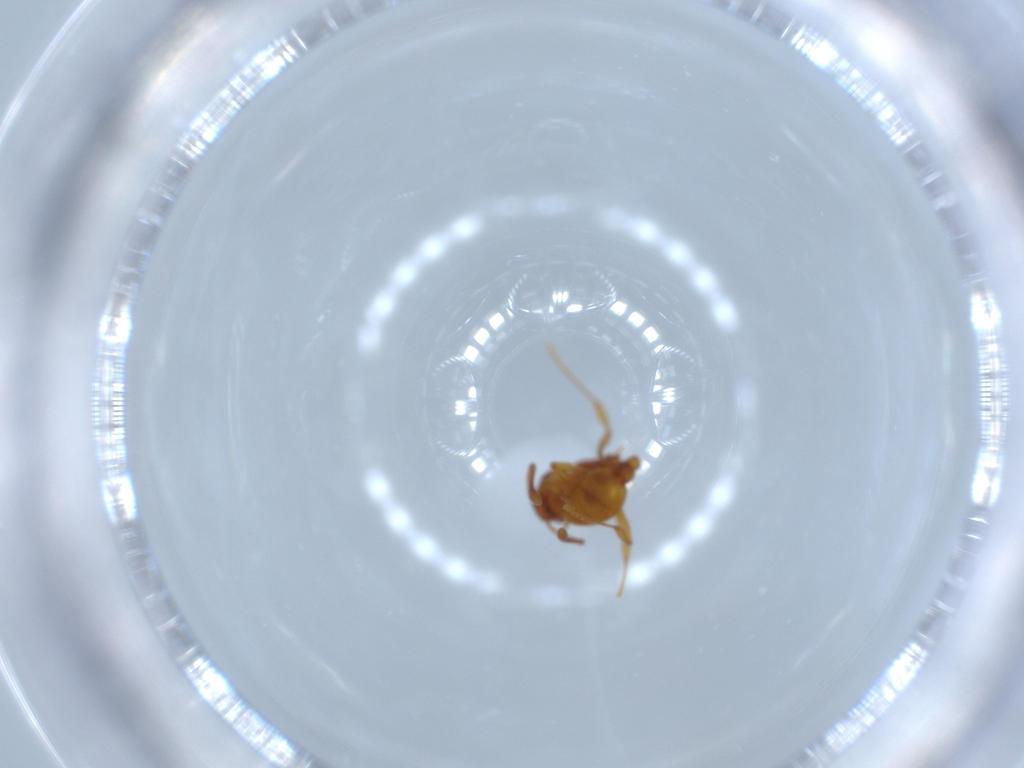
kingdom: Animalia
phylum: Arthropoda
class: Insecta
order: Hymenoptera
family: Formicidae
